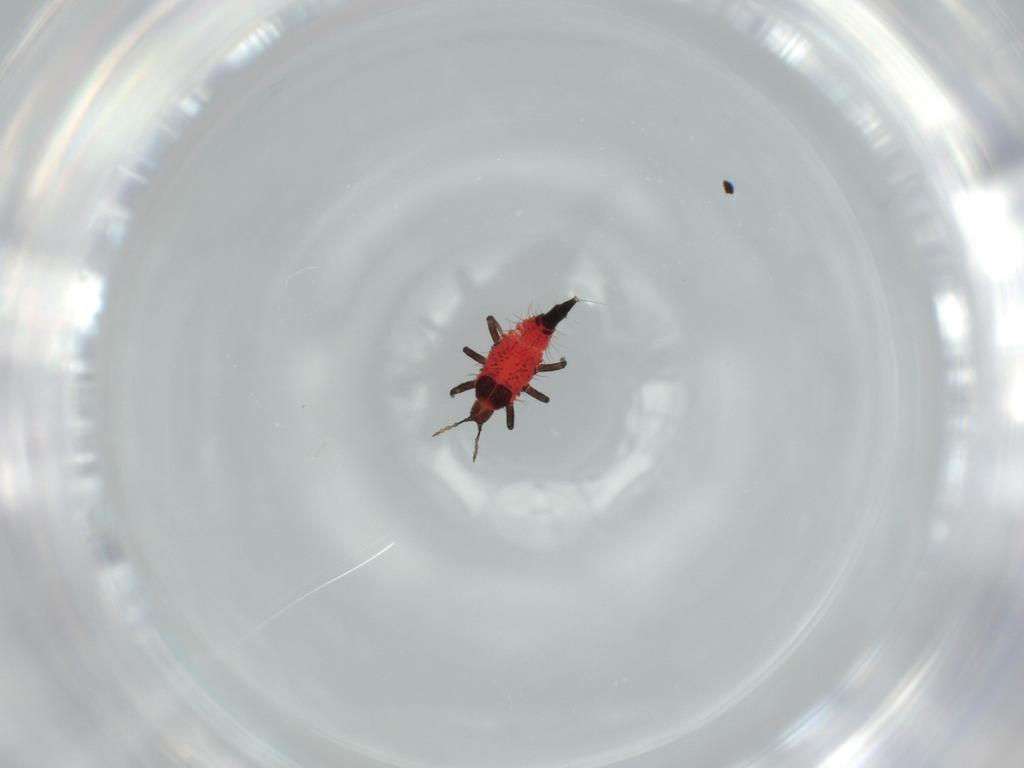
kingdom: Animalia
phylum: Arthropoda
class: Insecta
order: Thysanoptera
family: Phlaeothripidae
